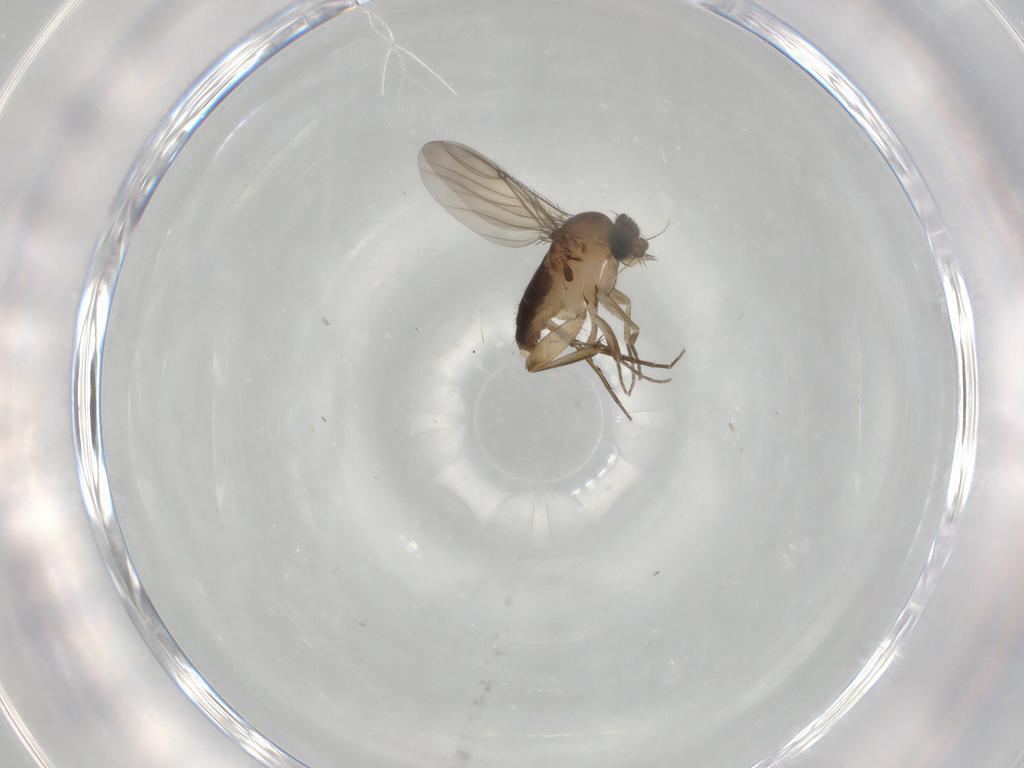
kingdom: Animalia
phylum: Arthropoda
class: Insecta
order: Diptera
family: Phoridae
